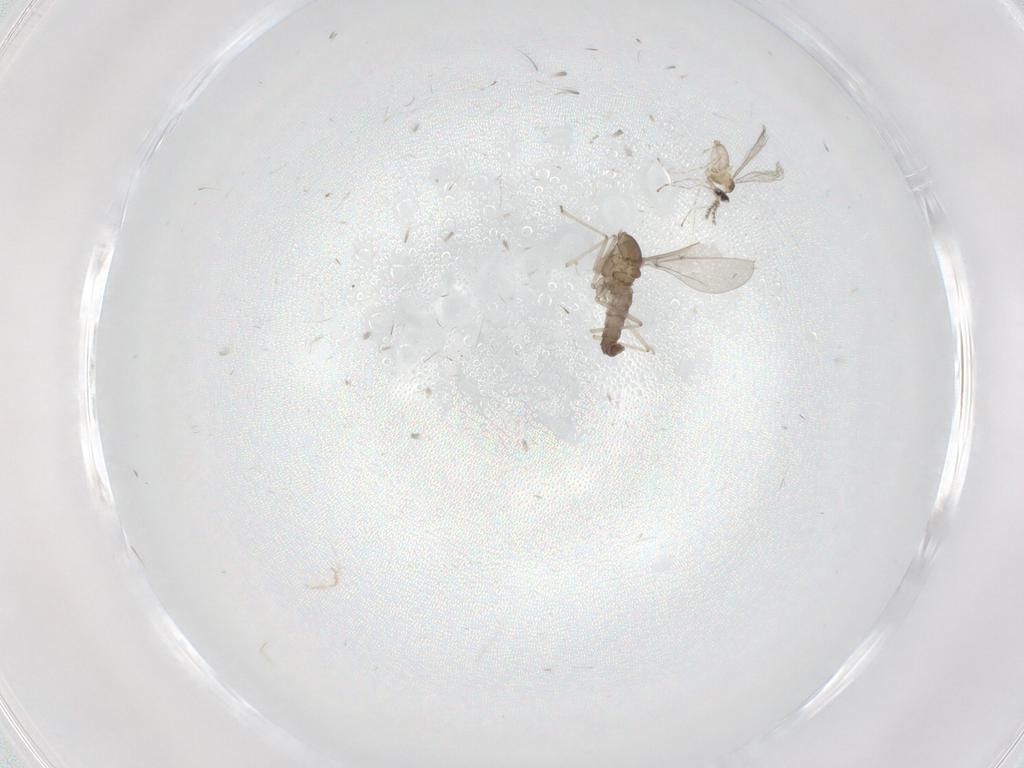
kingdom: Animalia
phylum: Arthropoda
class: Insecta
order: Diptera
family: Cecidomyiidae
